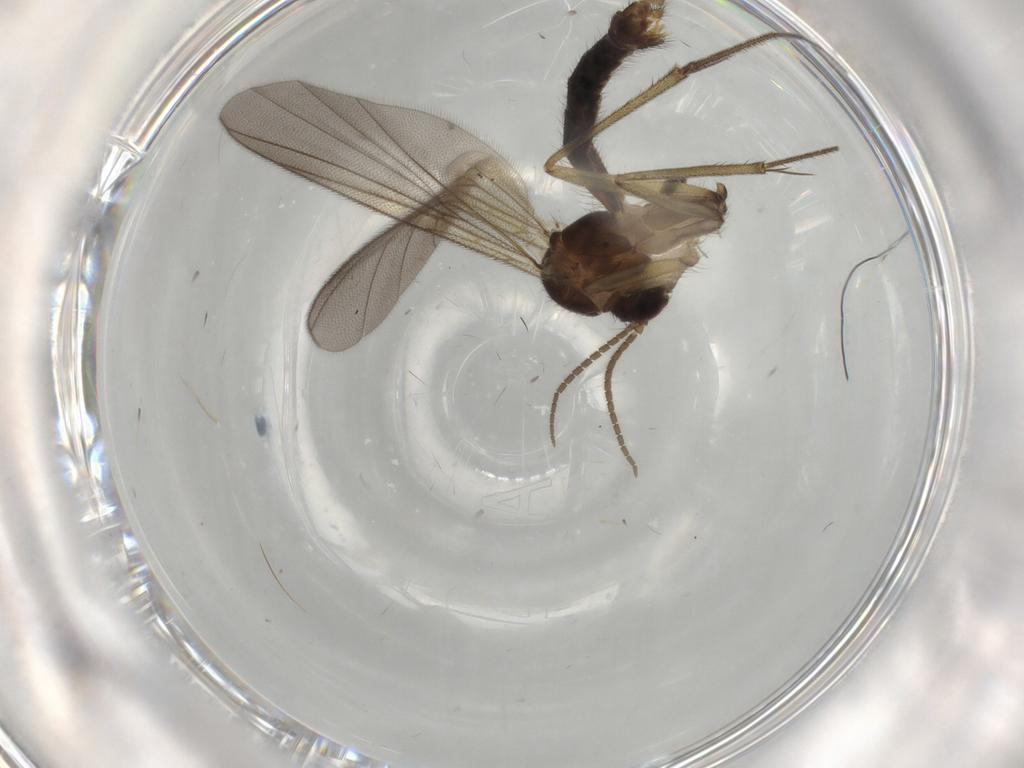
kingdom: Animalia
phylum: Arthropoda
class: Insecta
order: Diptera
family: Mycetophilidae
